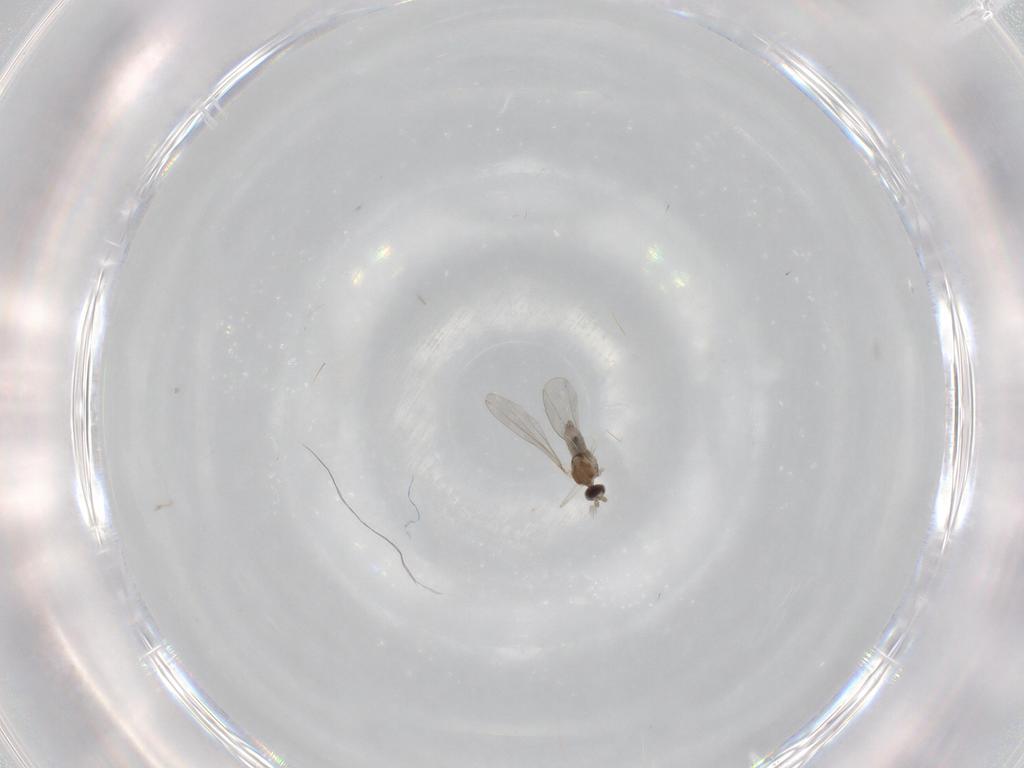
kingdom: Animalia
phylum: Arthropoda
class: Insecta
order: Diptera
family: Cecidomyiidae
